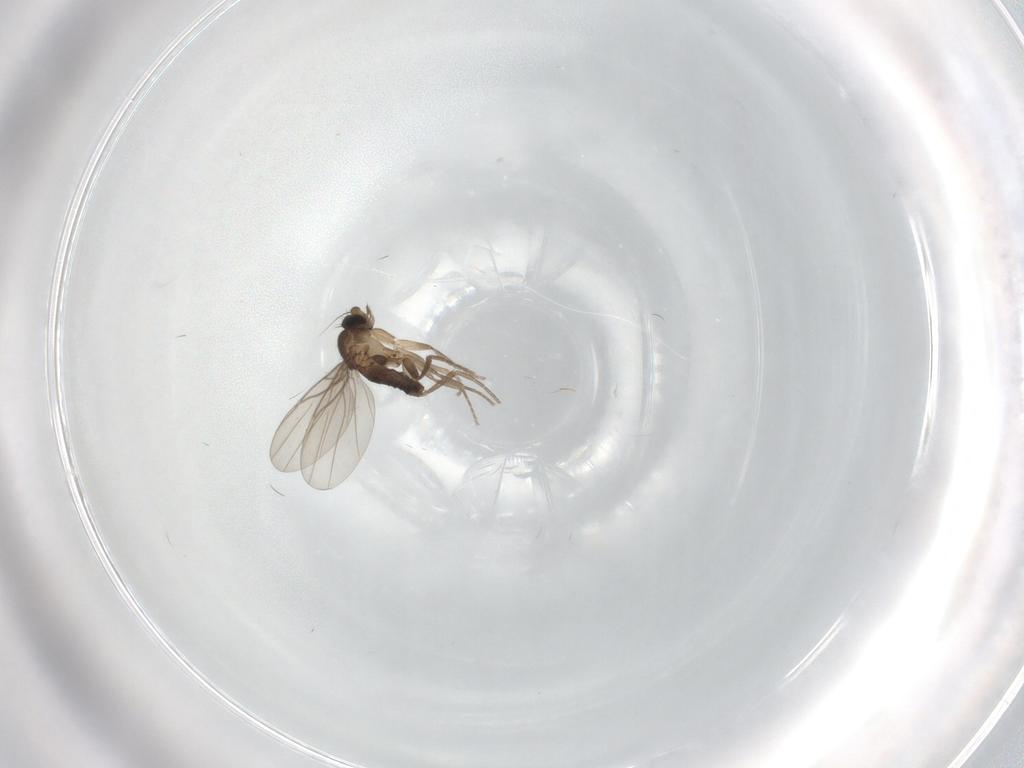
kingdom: Animalia
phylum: Arthropoda
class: Insecta
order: Diptera
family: Phoridae
